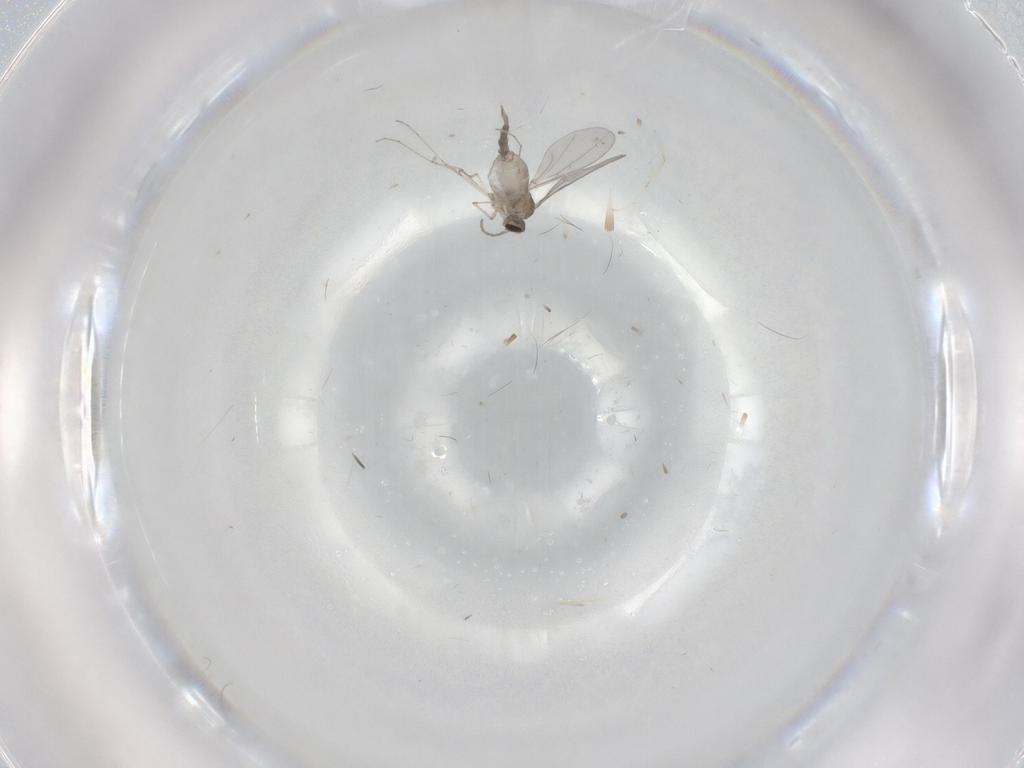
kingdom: Animalia
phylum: Arthropoda
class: Insecta
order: Diptera
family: Cecidomyiidae
